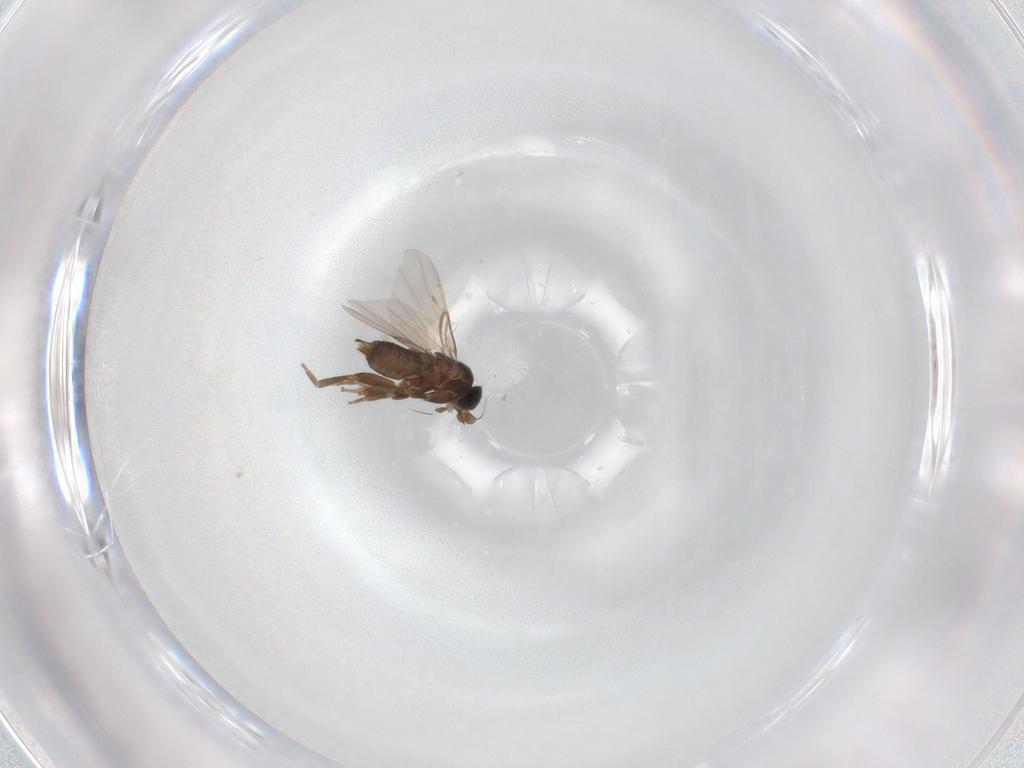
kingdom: Animalia
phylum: Arthropoda
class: Insecta
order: Diptera
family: Phoridae
